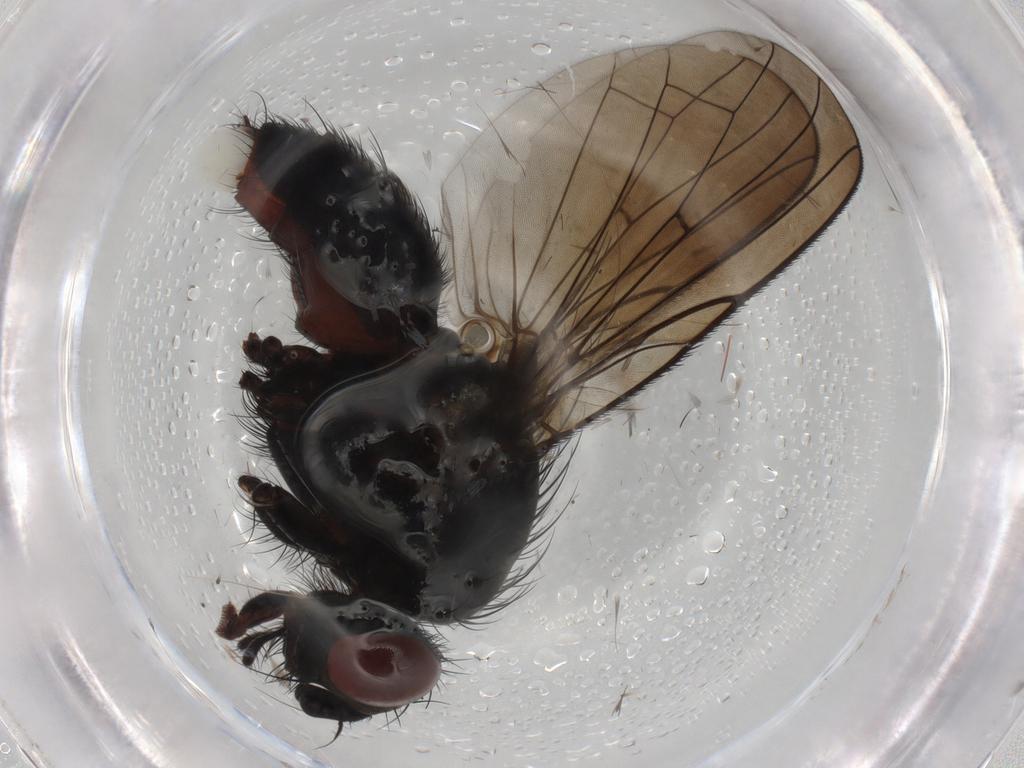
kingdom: Animalia
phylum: Arthropoda
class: Insecta
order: Diptera
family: Anthomyiidae
